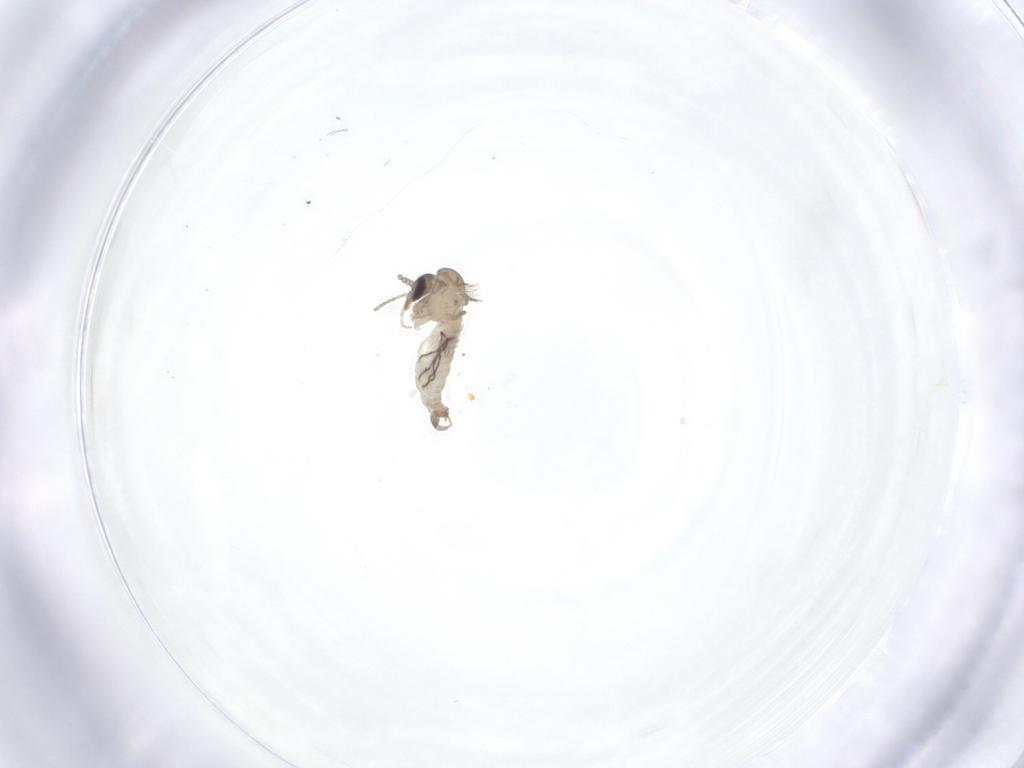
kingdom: Animalia
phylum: Arthropoda
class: Insecta
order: Diptera
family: Psychodidae
